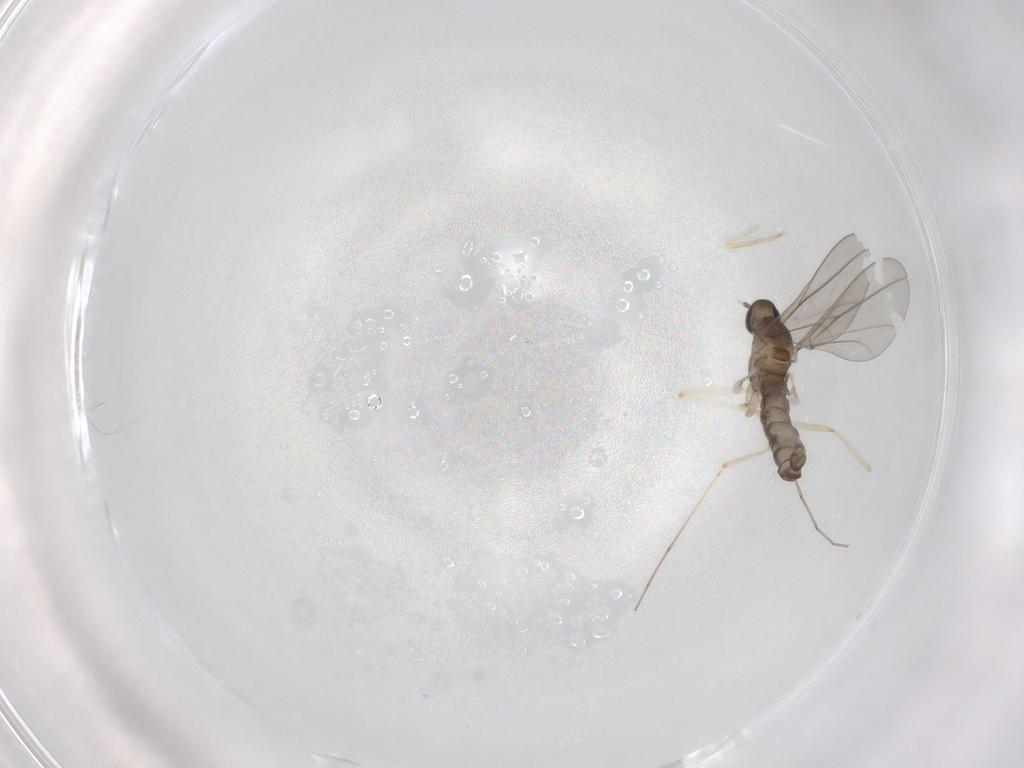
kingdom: Animalia
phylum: Arthropoda
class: Insecta
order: Diptera
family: Cecidomyiidae
